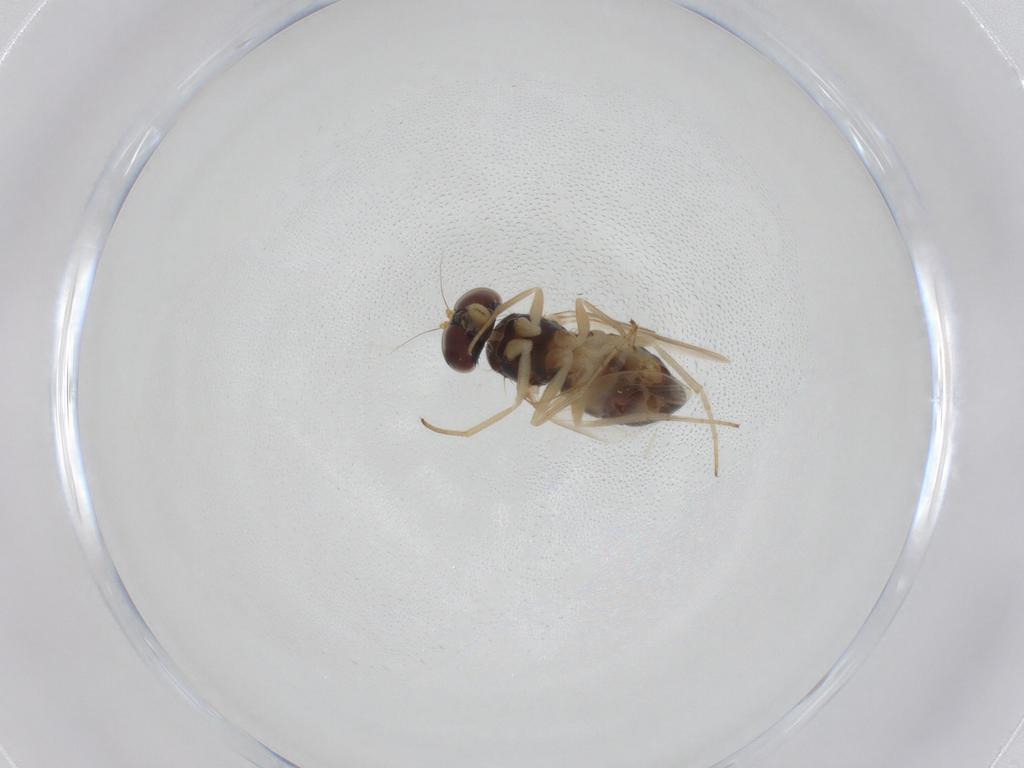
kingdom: Animalia
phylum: Arthropoda
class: Insecta
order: Diptera
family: Dolichopodidae
